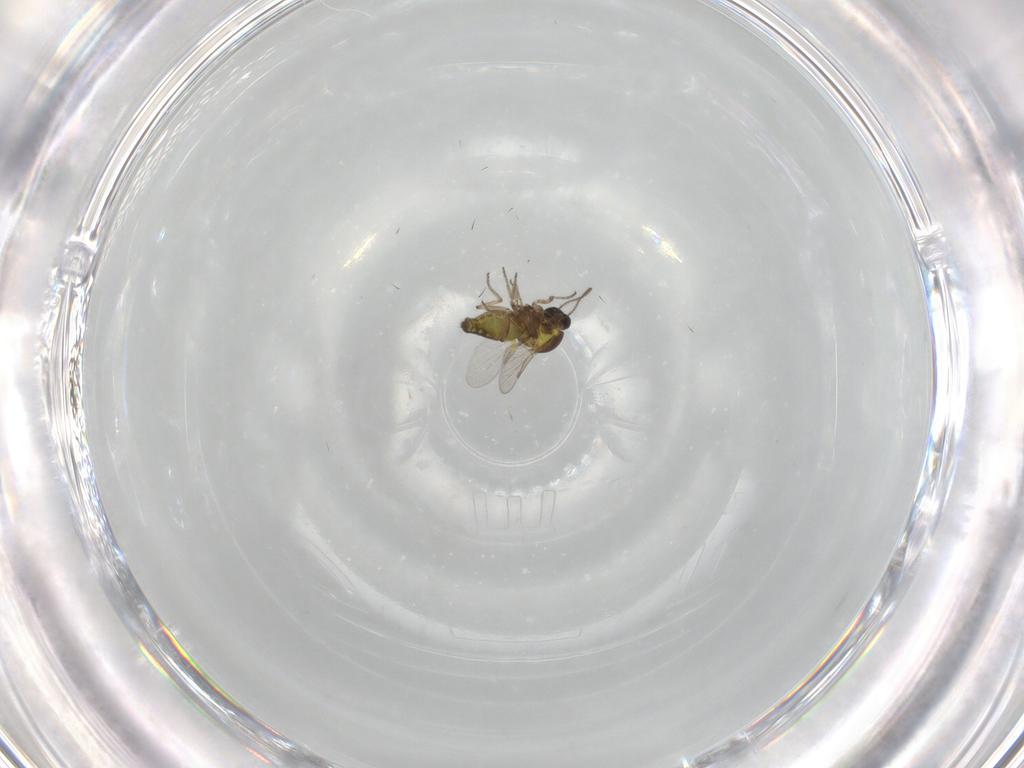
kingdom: Animalia
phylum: Arthropoda
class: Insecta
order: Diptera
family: Ceratopogonidae
